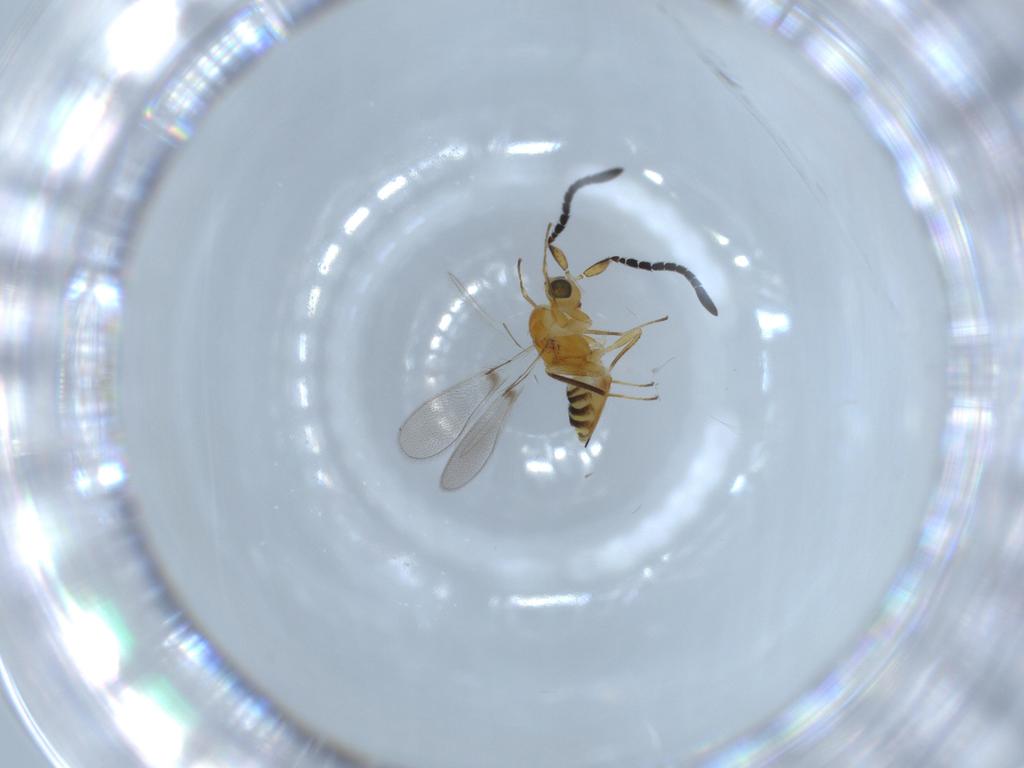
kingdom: Animalia
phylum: Arthropoda
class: Insecta
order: Hymenoptera
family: Mymaridae
